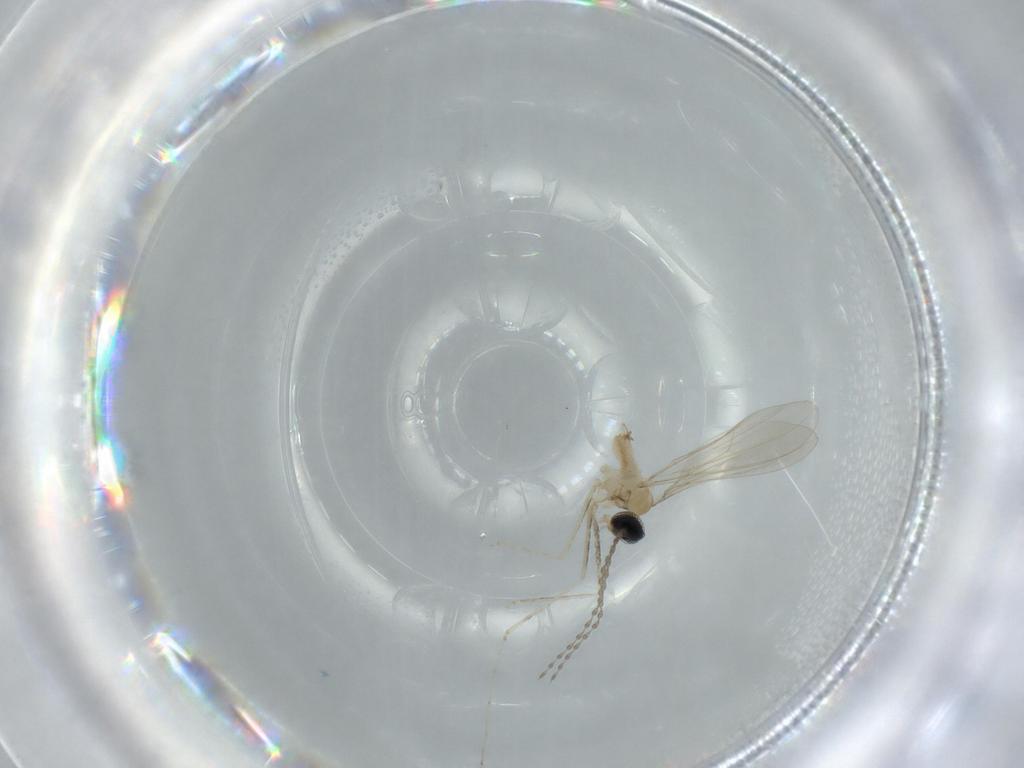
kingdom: Animalia
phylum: Arthropoda
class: Insecta
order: Diptera
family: Cecidomyiidae
